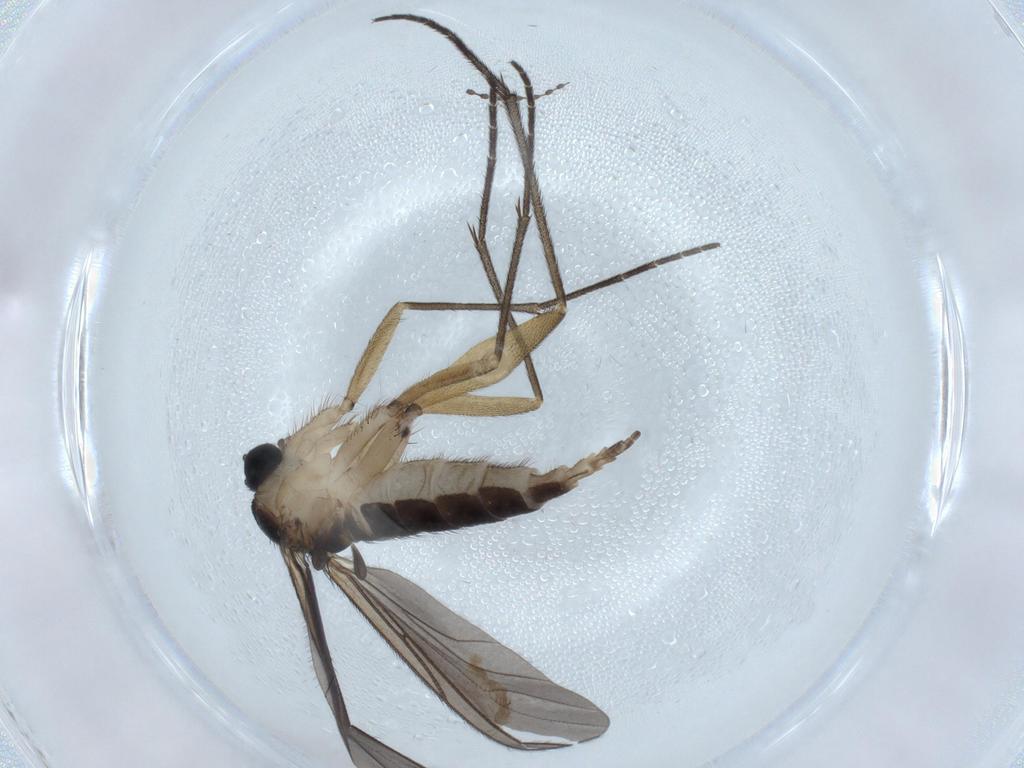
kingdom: Animalia
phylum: Arthropoda
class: Insecta
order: Diptera
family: Sciaridae
